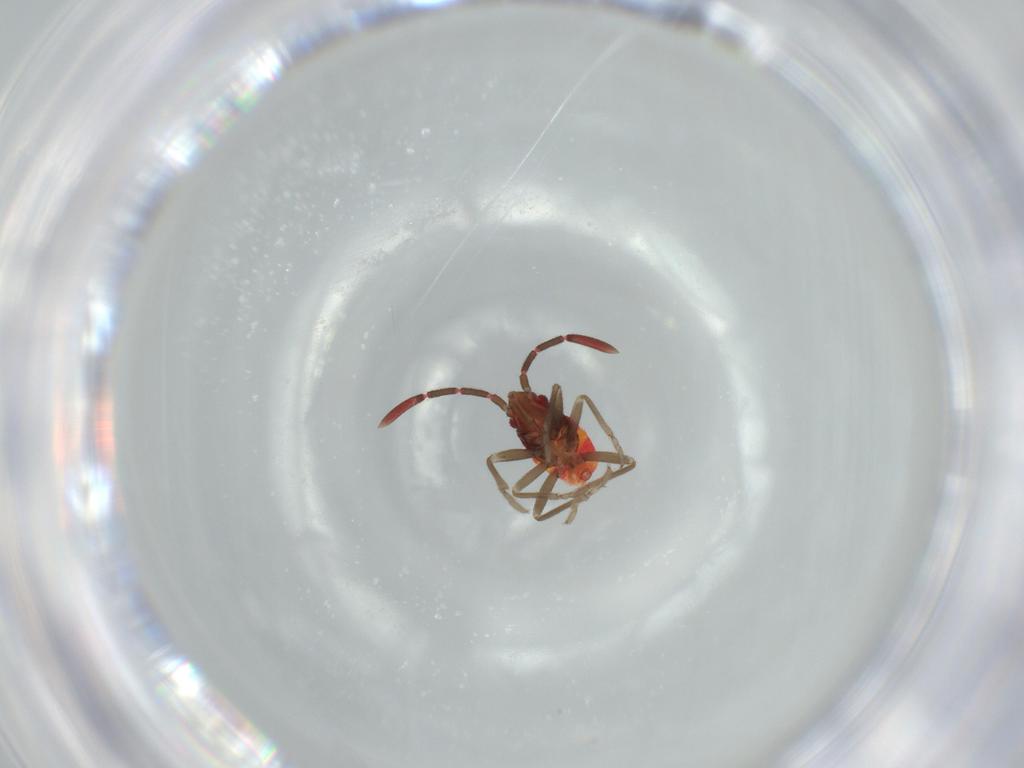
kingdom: Animalia
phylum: Arthropoda
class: Insecta
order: Hemiptera
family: Rhyparochromidae
